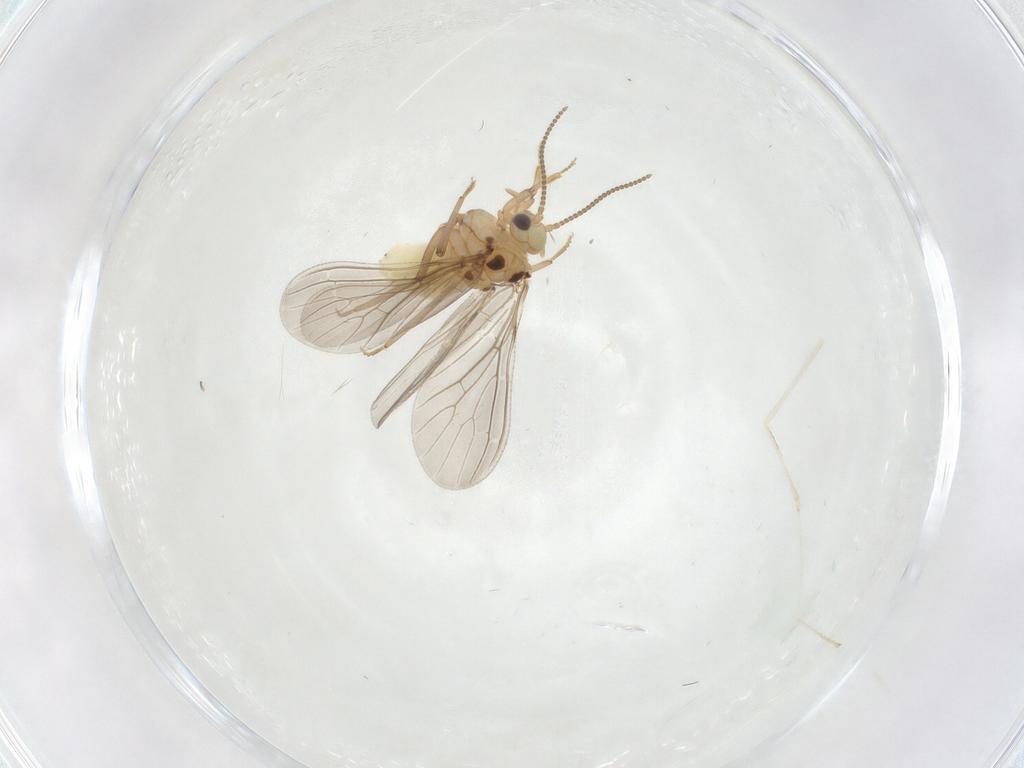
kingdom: Animalia
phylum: Arthropoda
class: Insecta
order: Neuroptera
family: Coniopterygidae
